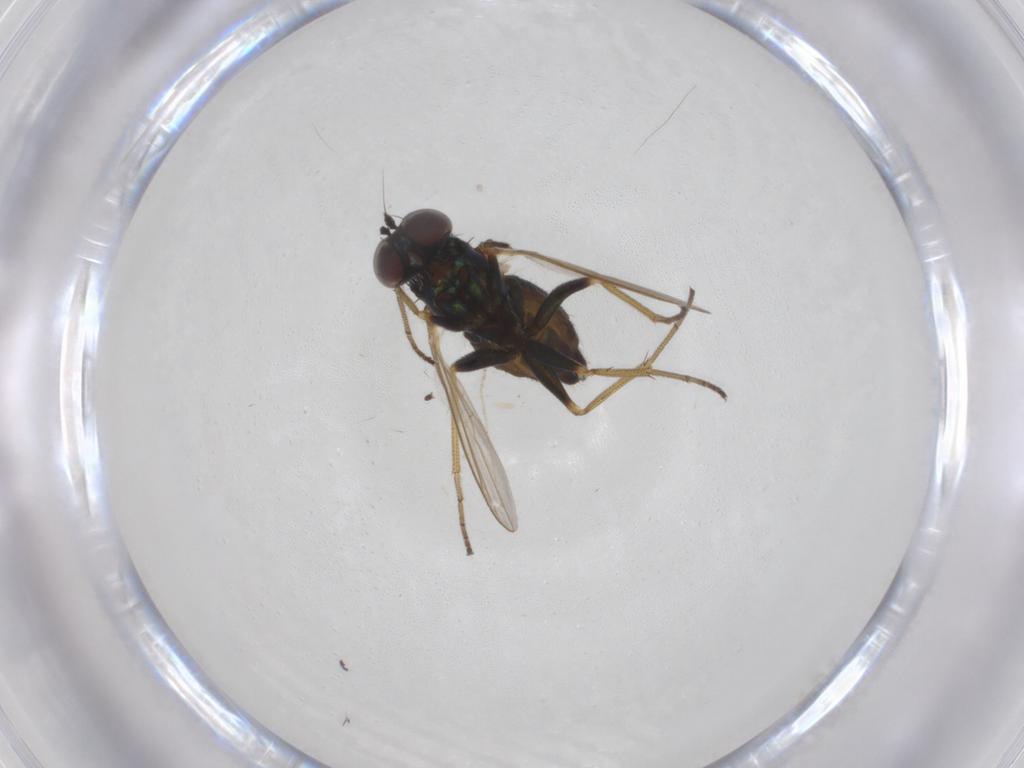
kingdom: Animalia
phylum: Arthropoda
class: Insecta
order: Diptera
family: Chironomidae
